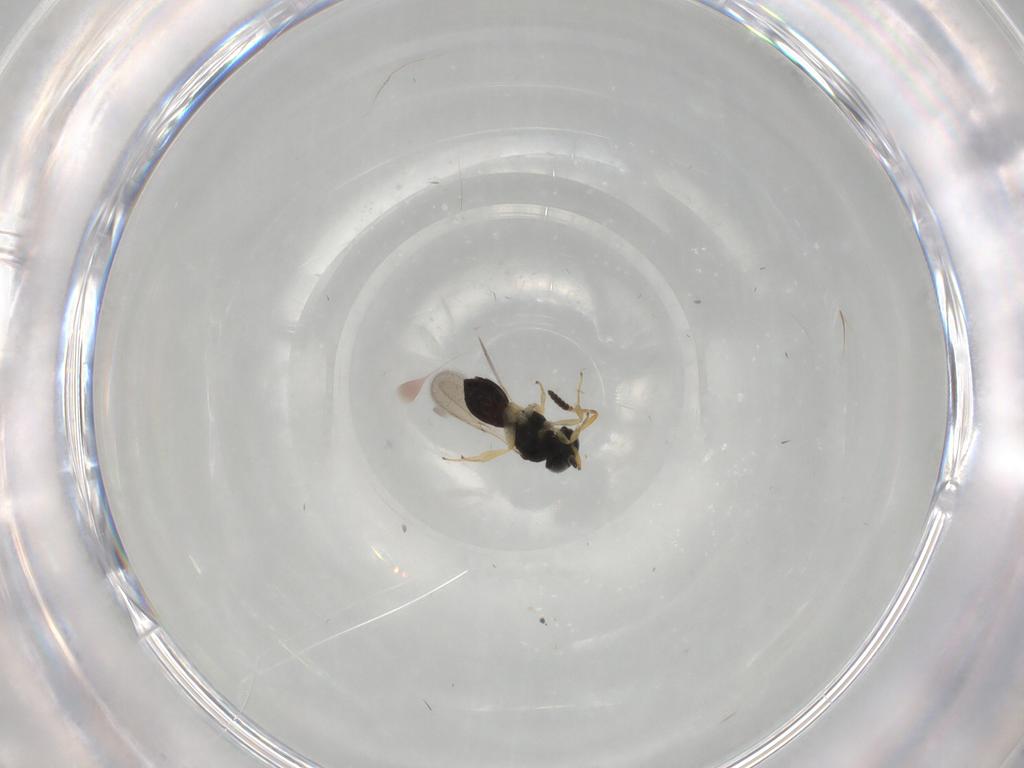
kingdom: Animalia
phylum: Arthropoda
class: Insecta
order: Hymenoptera
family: Scelionidae
